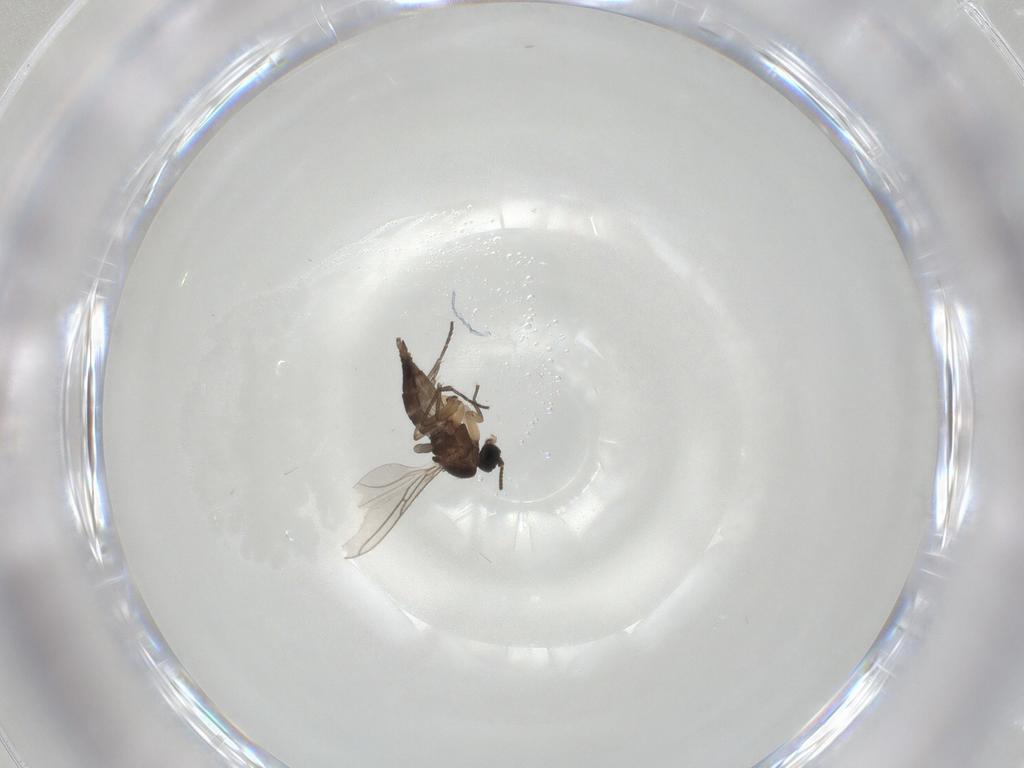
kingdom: Animalia
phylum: Arthropoda
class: Insecta
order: Diptera
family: Sciaridae
